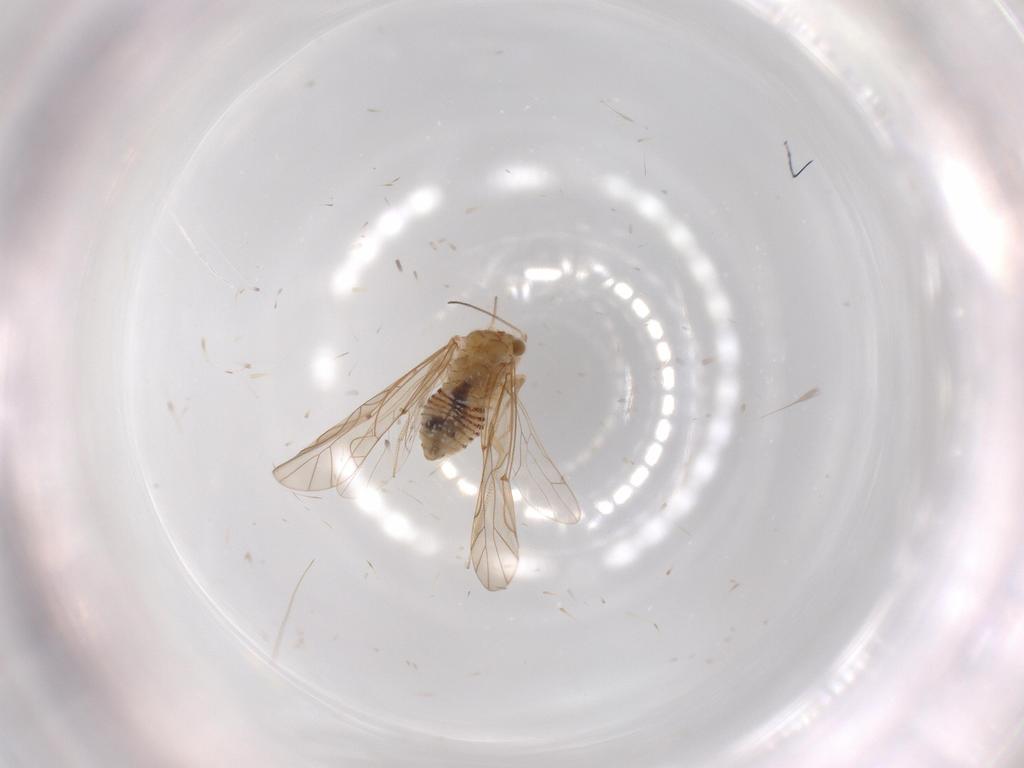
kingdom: Animalia
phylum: Arthropoda
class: Insecta
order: Psocodea
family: Lachesillidae
